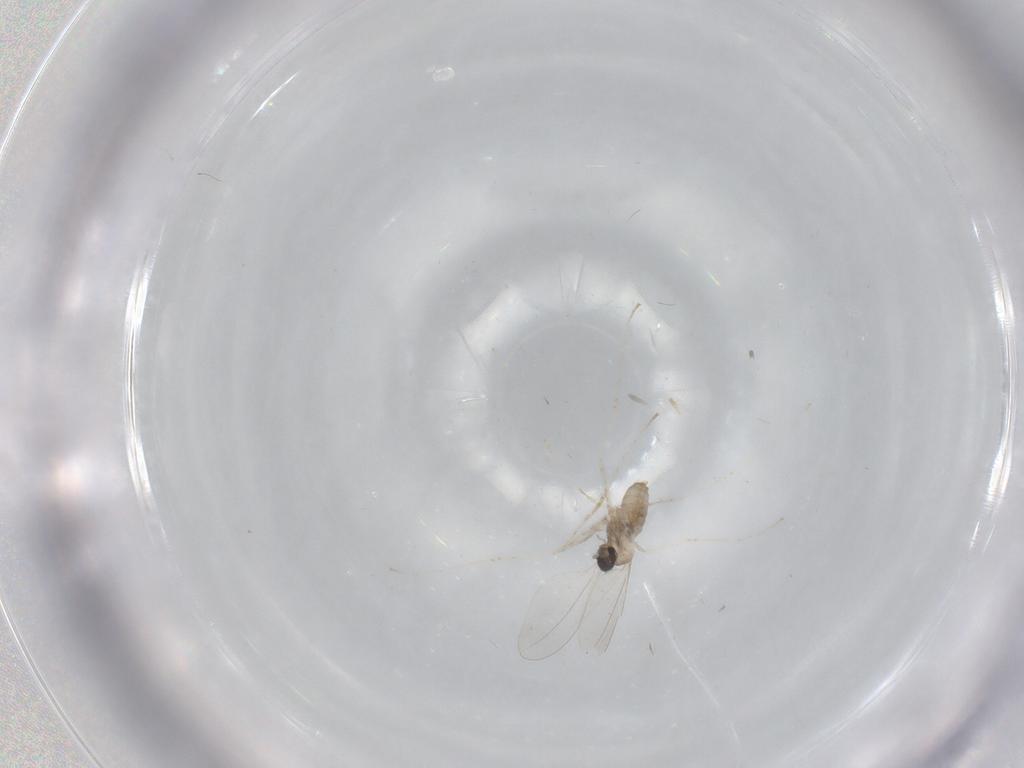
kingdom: Animalia
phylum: Arthropoda
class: Insecta
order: Diptera
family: Cecidomyiidae
